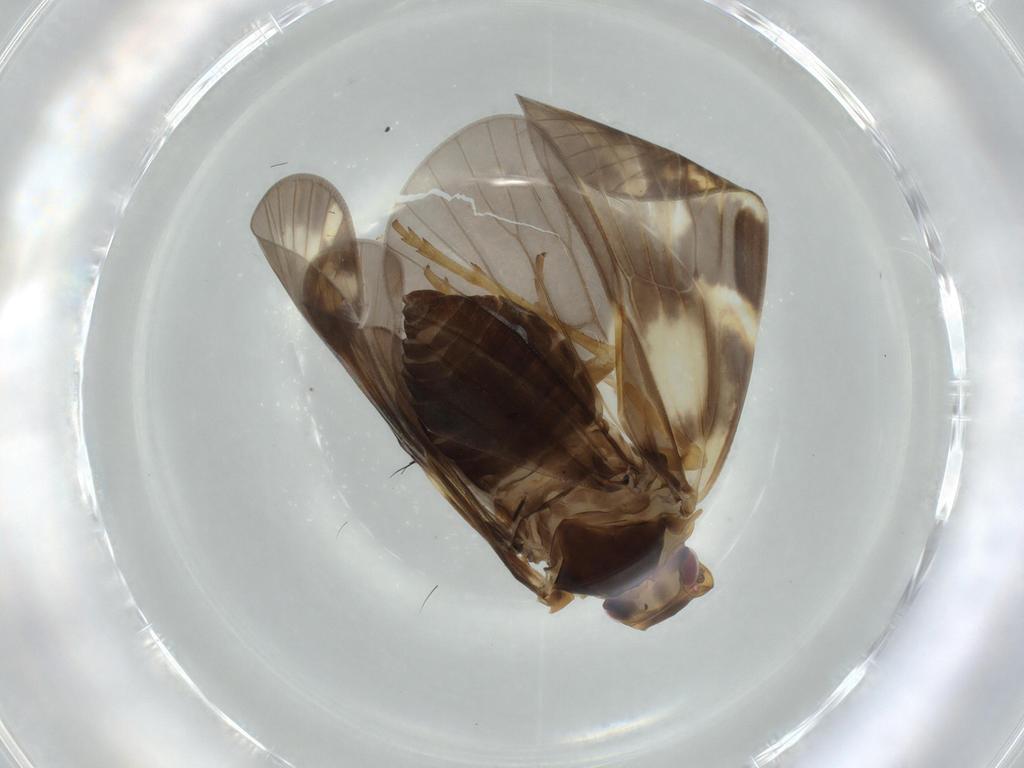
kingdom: Animalia
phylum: Arthropoda
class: Insecta
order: Hemiptera
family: Cixiidae
